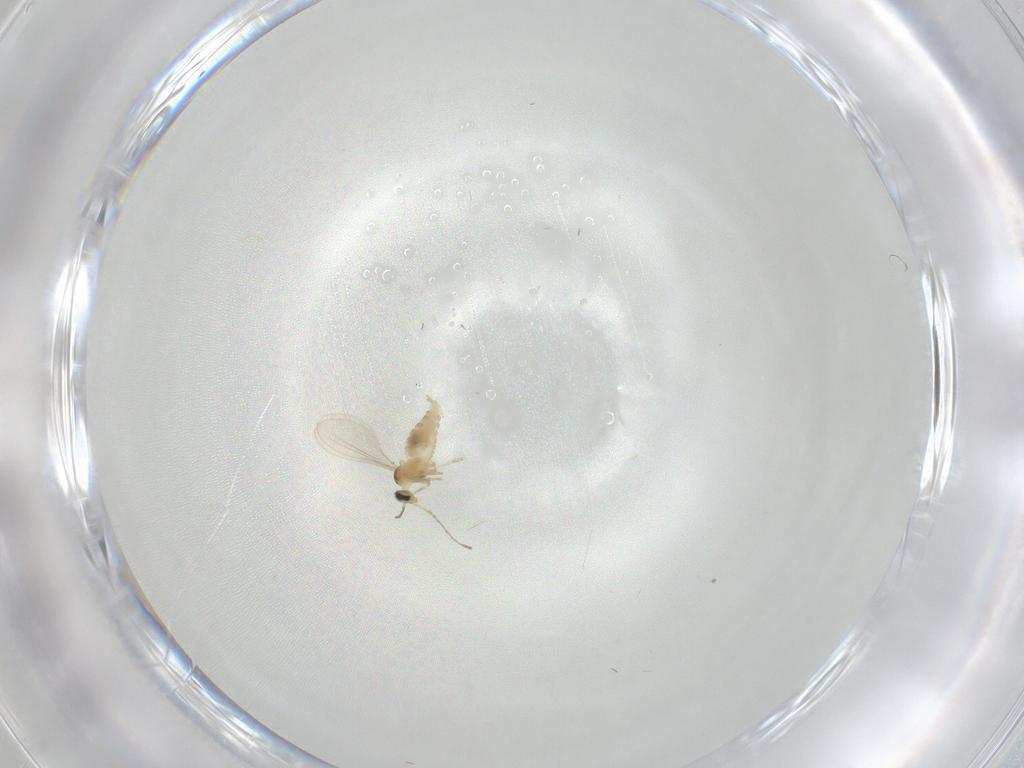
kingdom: Animalia
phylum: Arthropoda
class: Insecta
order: Diptera
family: Cecidomyiidae
